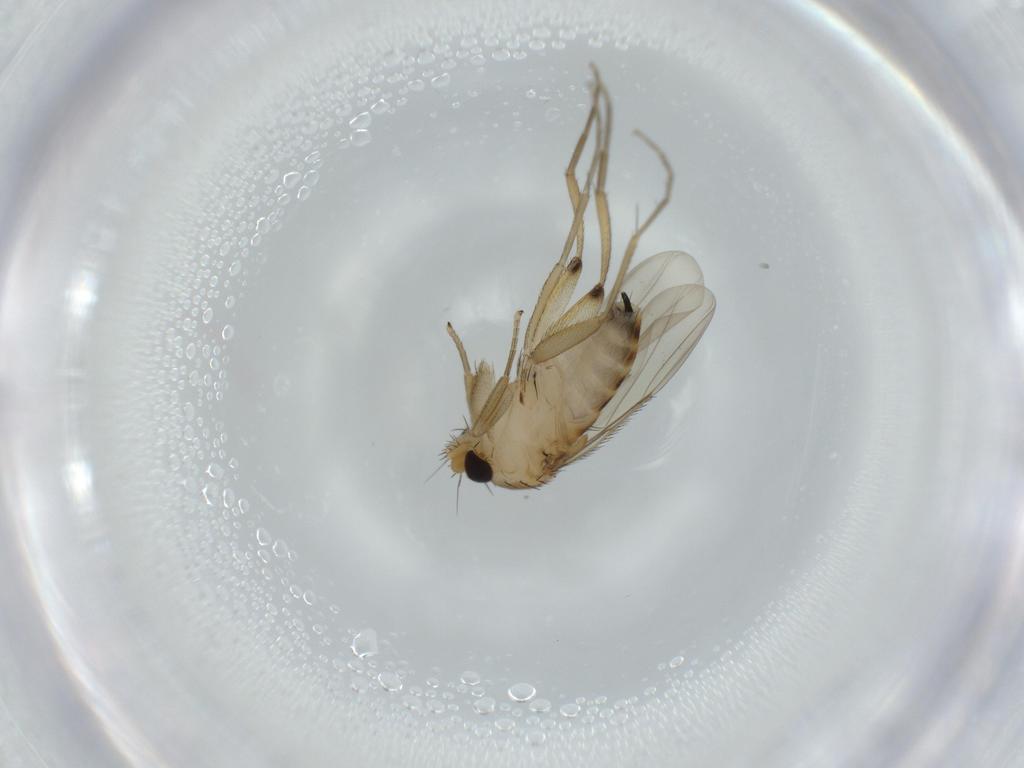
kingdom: Animalia
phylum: Arthropoda
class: Insecta
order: Diptera
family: Phoridae
